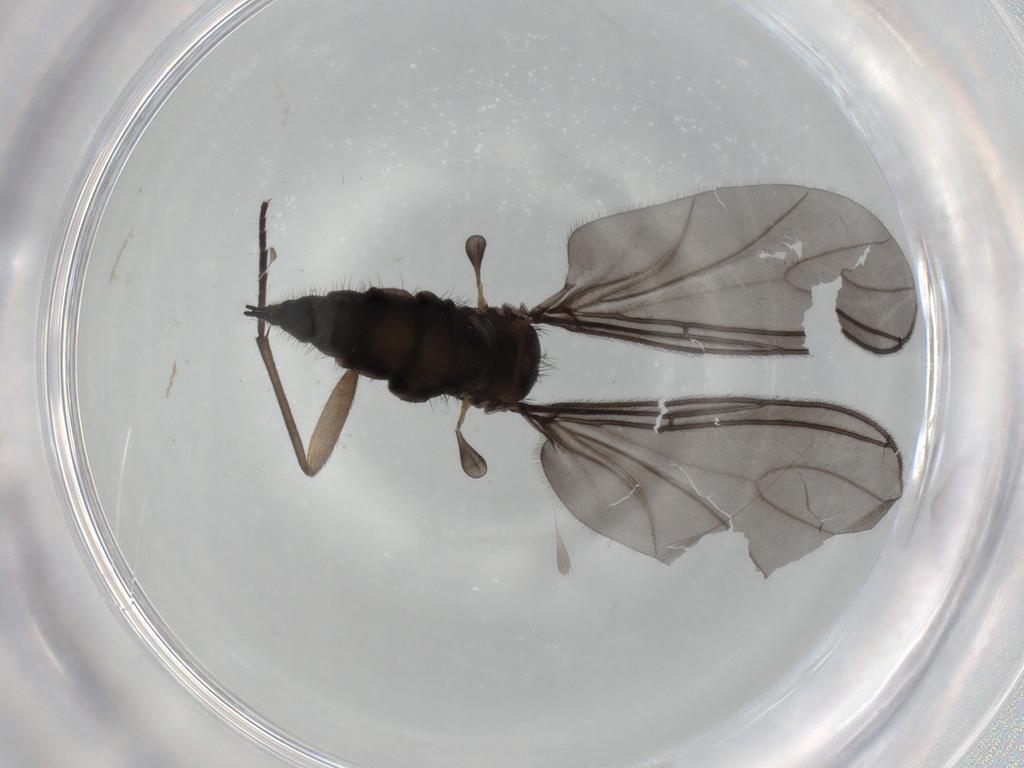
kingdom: Animalia
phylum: Arthropoda
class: Insecta
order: Diptera
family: Sciaridae
